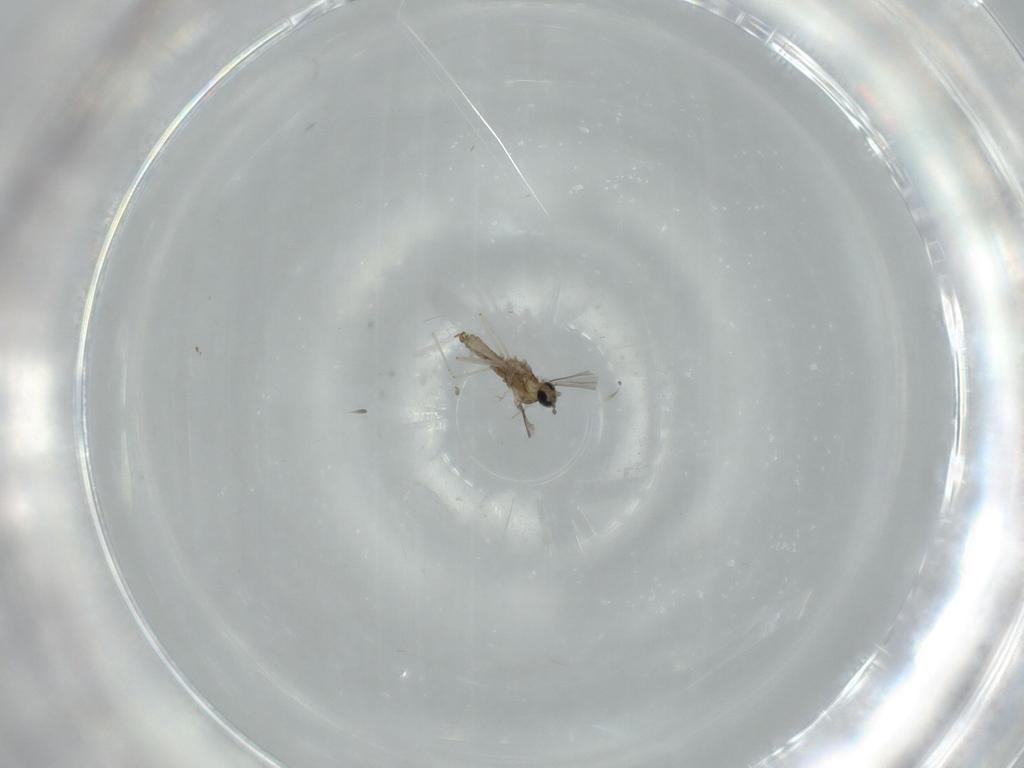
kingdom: Animalia
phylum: Arthropoda
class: Insecta
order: Diptera
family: Cecidomyiidae
